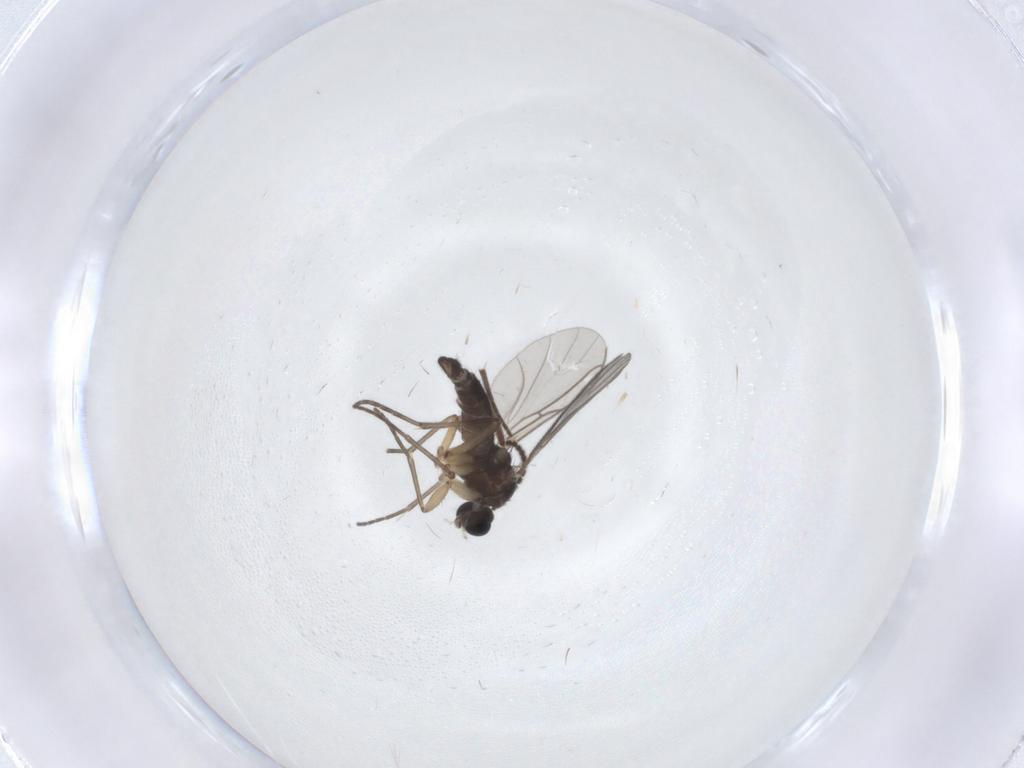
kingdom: Animalia
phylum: Arthropoda
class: Insecta
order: Diptera
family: Sciaridae
